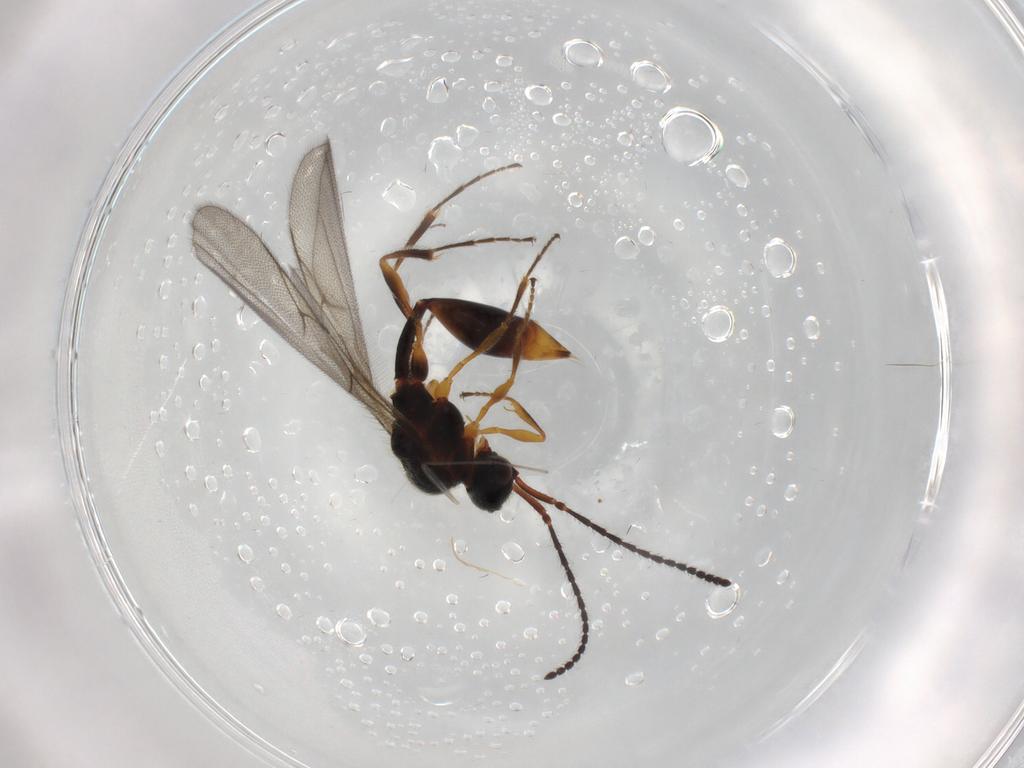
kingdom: Animalia
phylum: Arthropoda
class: Insecta
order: Hymenoptera
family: Diapriidae
